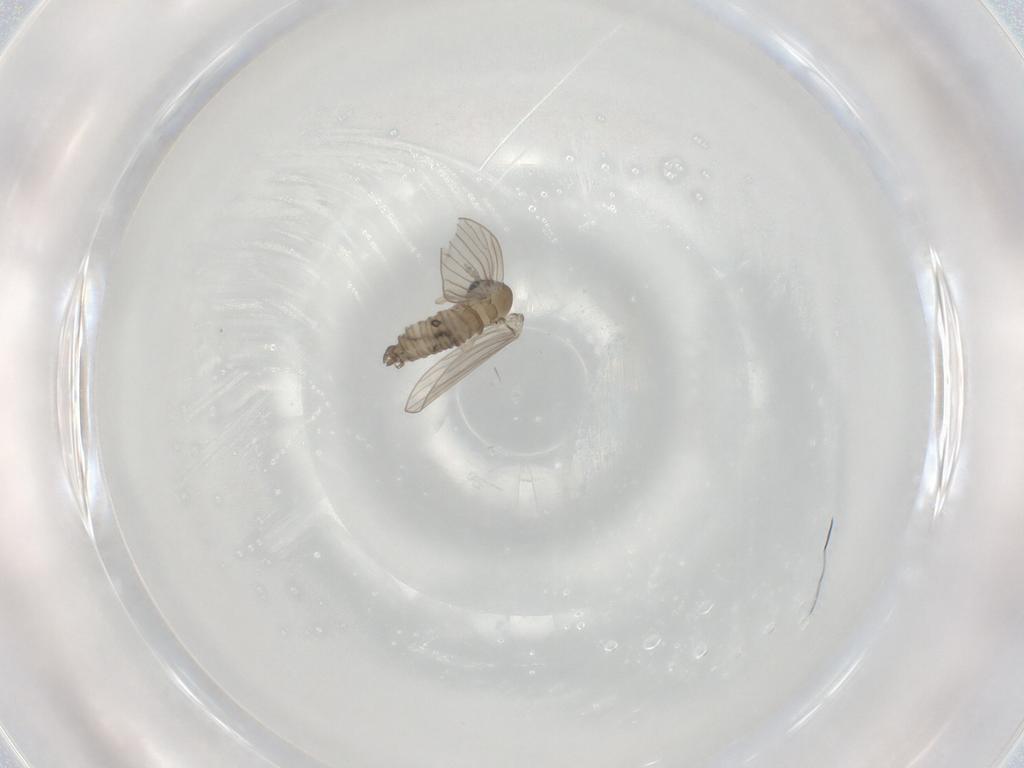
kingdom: Animalia
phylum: Arthropoda
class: Insecta
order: Diptera
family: Psychodidae
